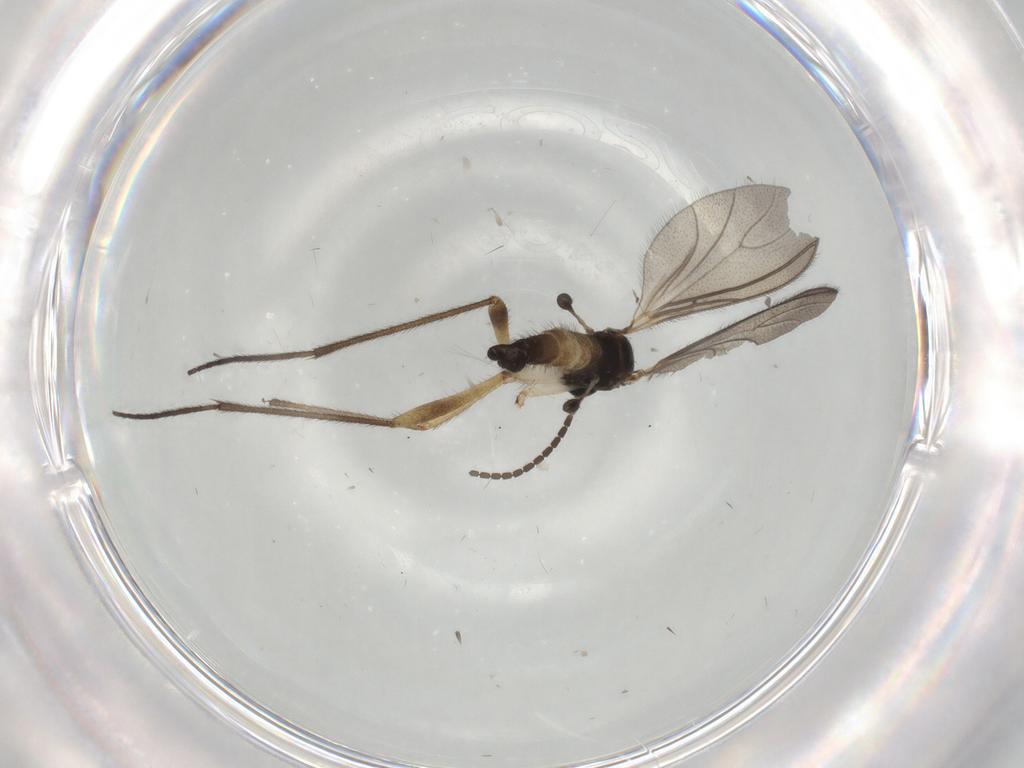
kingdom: Animalia
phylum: Arthropoda
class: Insecta
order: Diptera
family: Sciaridae
